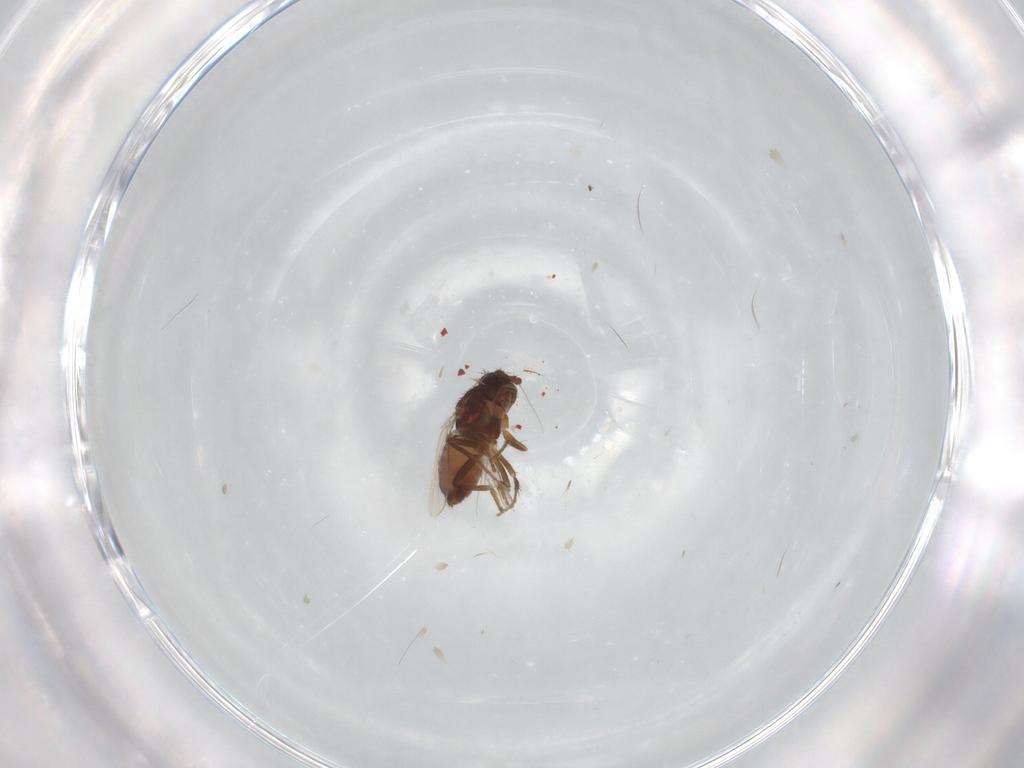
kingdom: Animalia
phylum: Arthropoda
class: Insecta
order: Diptera
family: Sphaeroceridae
